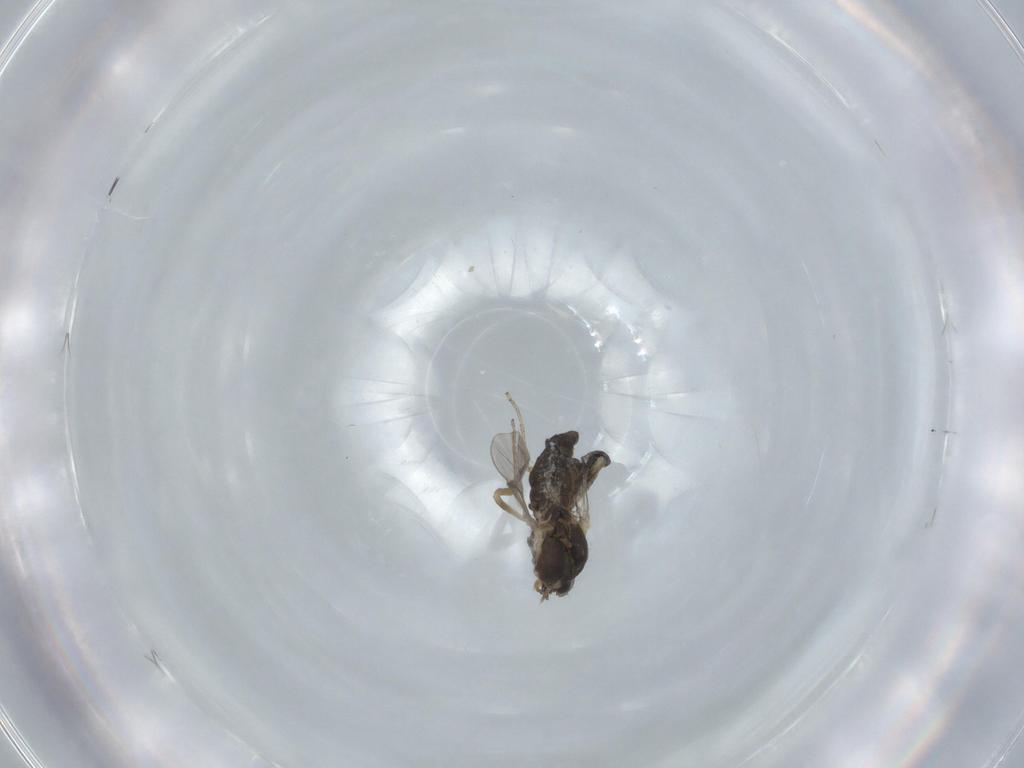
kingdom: Animalia
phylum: Arthropoda
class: Insecta
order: Diptera
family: Ceratopogonidae
